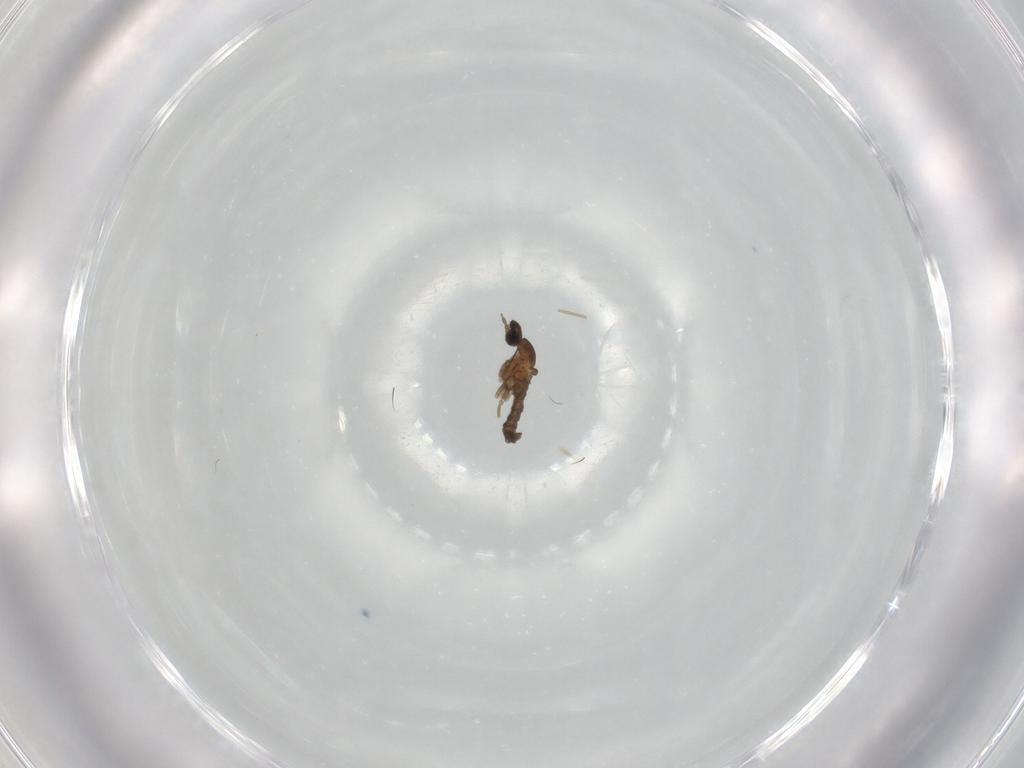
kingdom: Animalia
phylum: Arthropoda
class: Insecta
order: Diptera
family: Cecidomyiidae
